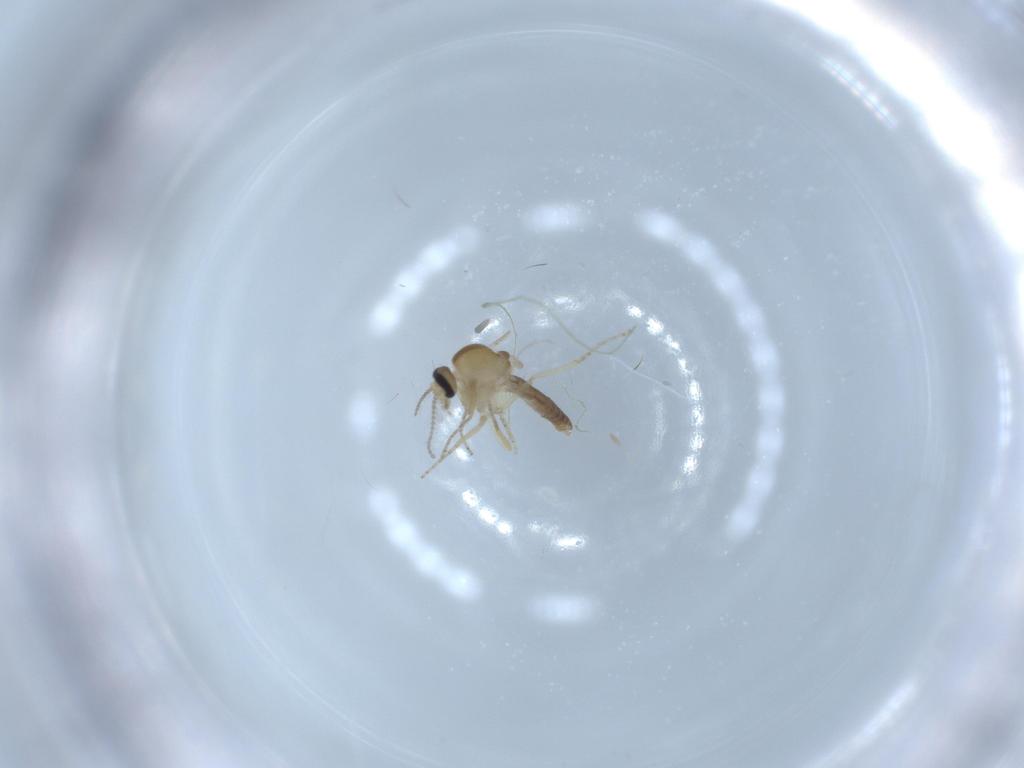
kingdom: Animalia
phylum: Arthropoda
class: Insecta
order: Diptera
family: Ceratopogonidae
